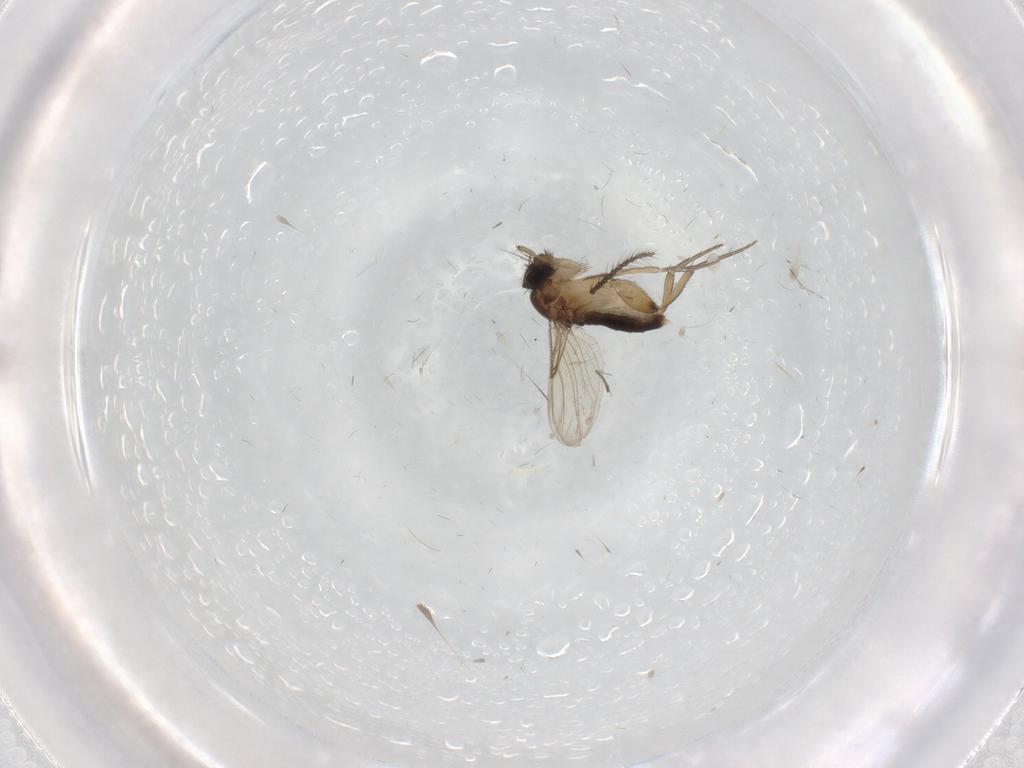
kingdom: Animalia
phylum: Arthropoda
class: Insecta
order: Diptera
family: Phoridae
